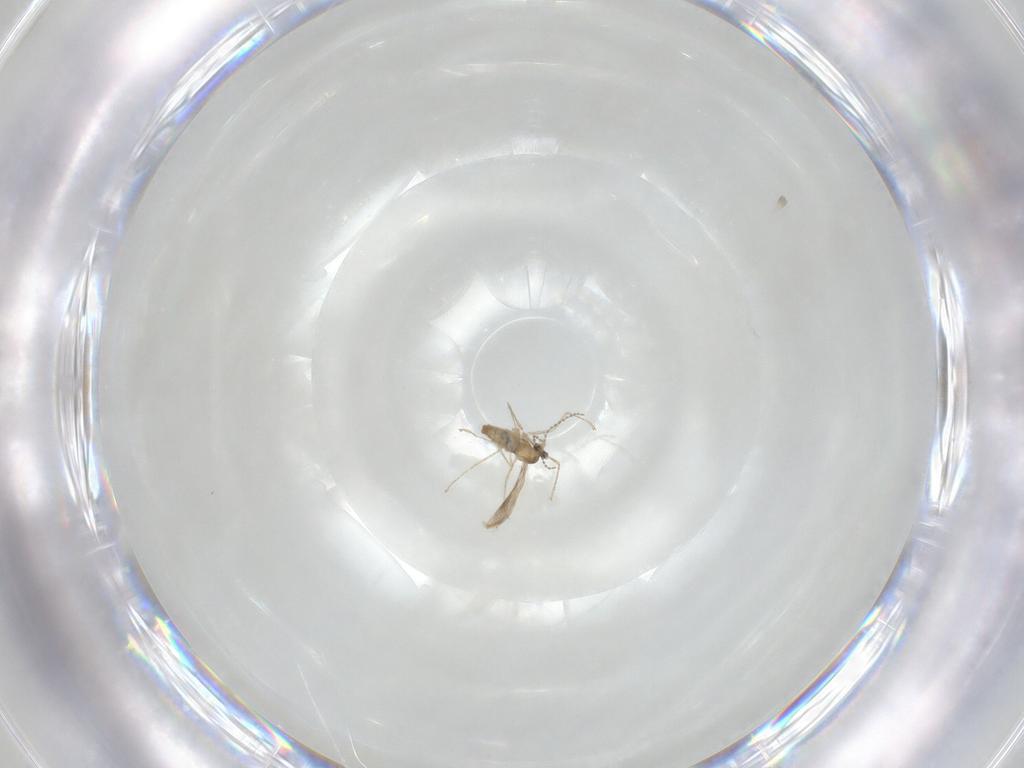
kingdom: Animalia
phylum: Arthropoda
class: Insecta
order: Diptera
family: Cecidomyiidae
